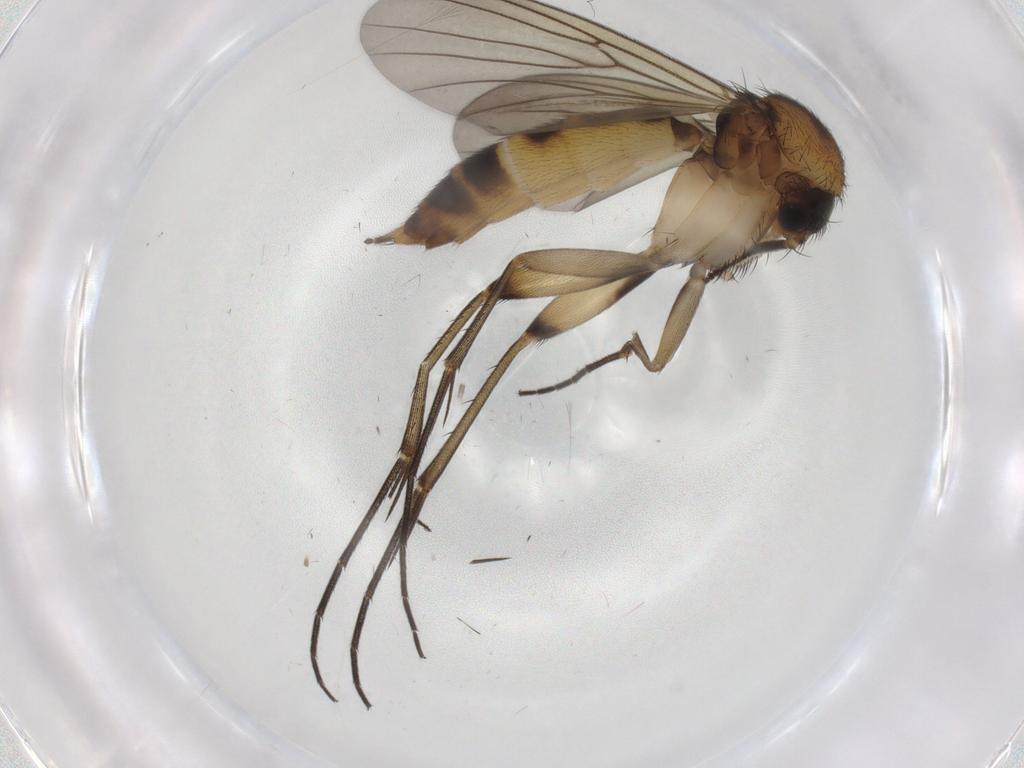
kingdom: Animalia
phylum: Arthropoda
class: Insecta
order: Diptera
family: Mycetophilidae
